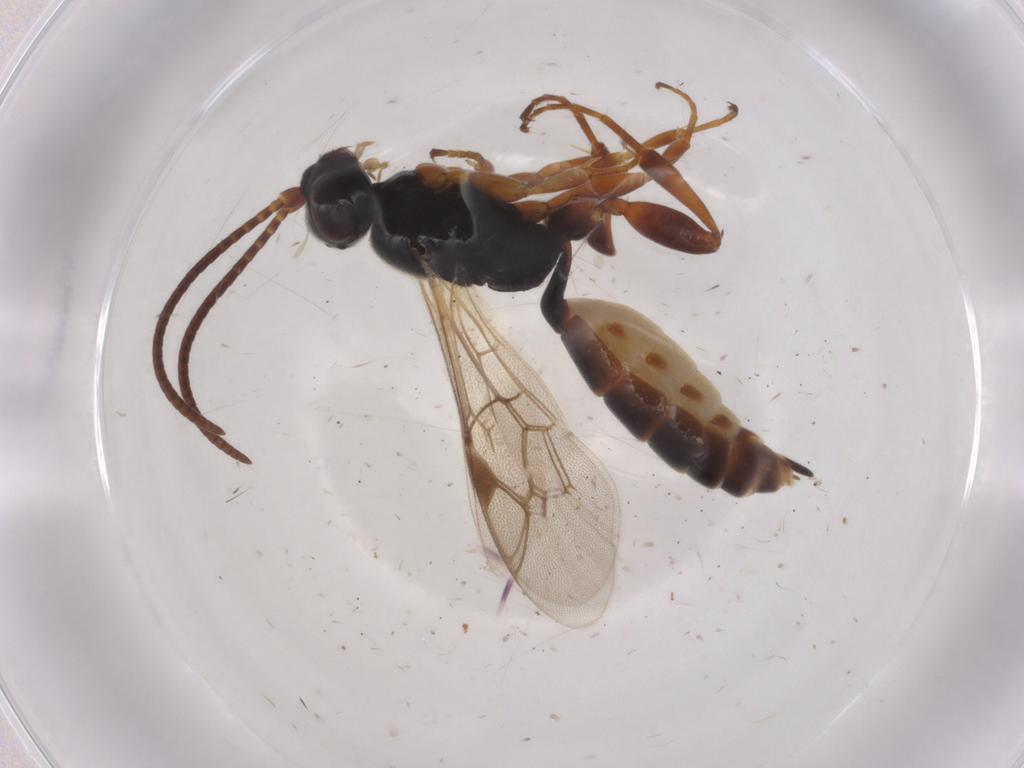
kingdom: Animalia
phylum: Arthropoda
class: Insecta
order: Hymenoptera
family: Ichneumonidae
